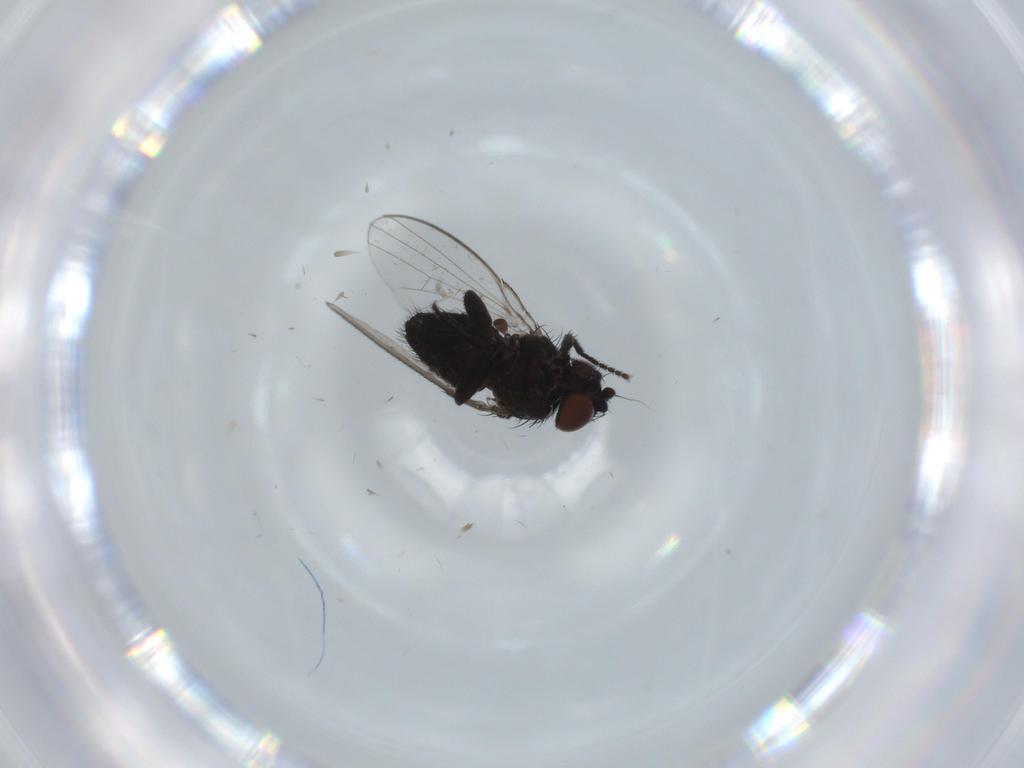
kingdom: Animalia
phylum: Arthropoda
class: Insecta
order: Diptera
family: Milichiidae
